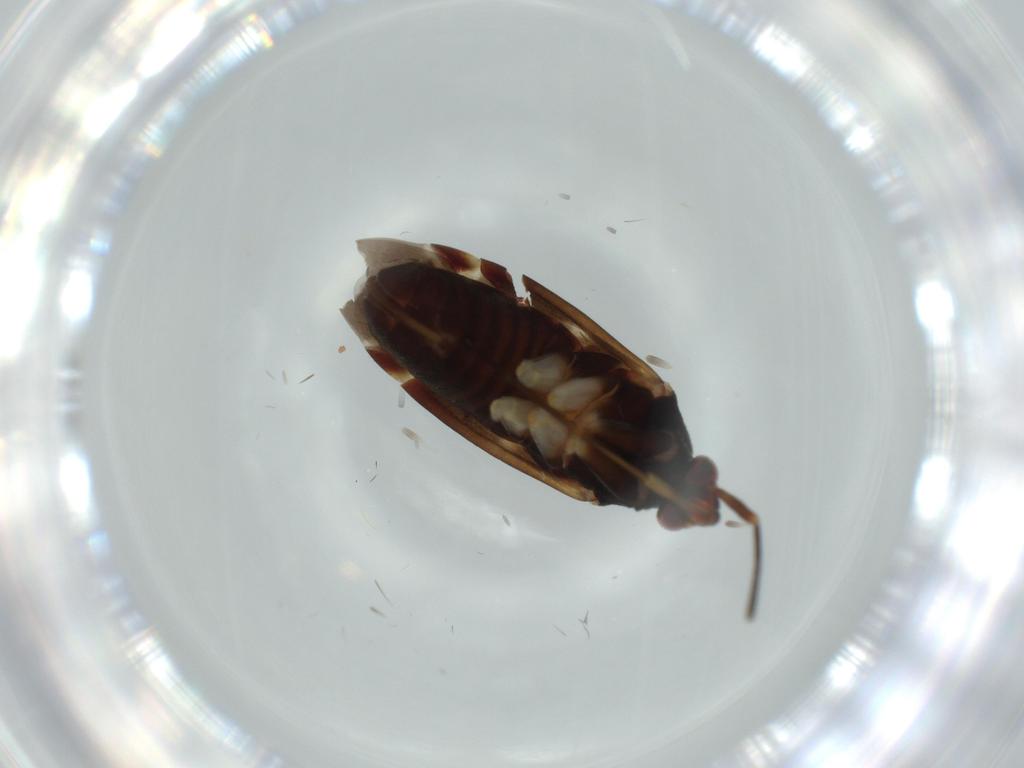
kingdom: Animalia
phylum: Arthropoda
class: Insecta
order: Hemiptera
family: Miridae
